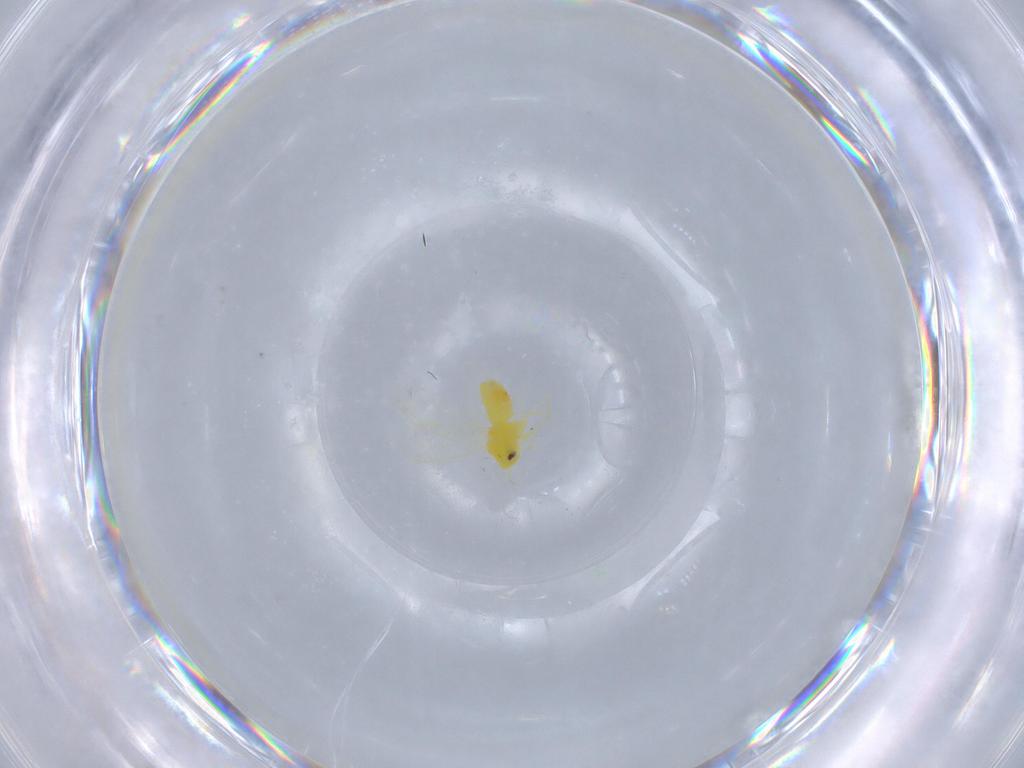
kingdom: Animalia
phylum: Arthropoda
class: Insecta
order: Hemiptera
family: Aleyrodidae
